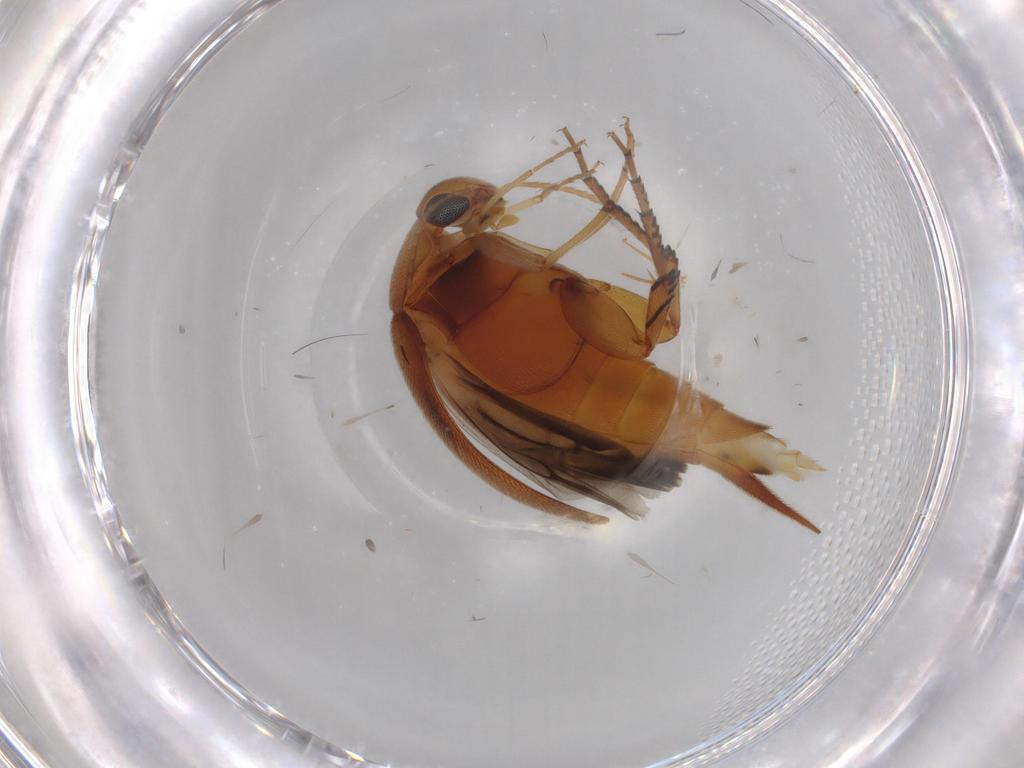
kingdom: Animalia
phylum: Arthropoda
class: Insecta
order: Coleoptera
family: Mordellidae
